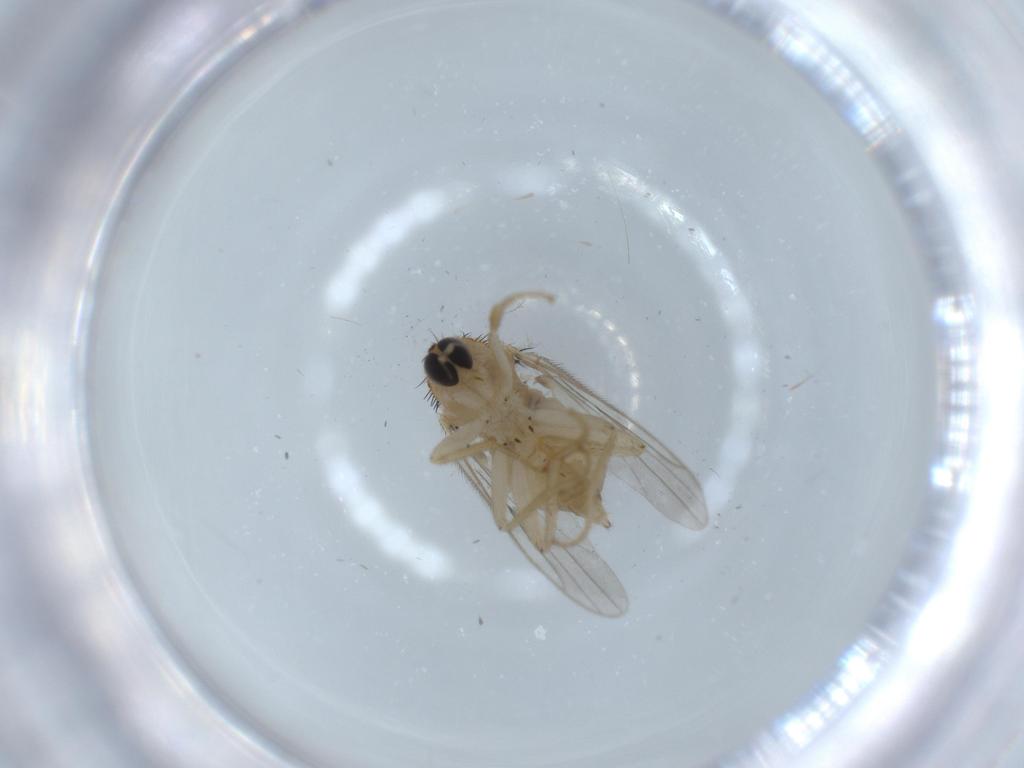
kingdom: Animalia
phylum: Arthropoda
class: Insecta
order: Diptera
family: Hybotidae
